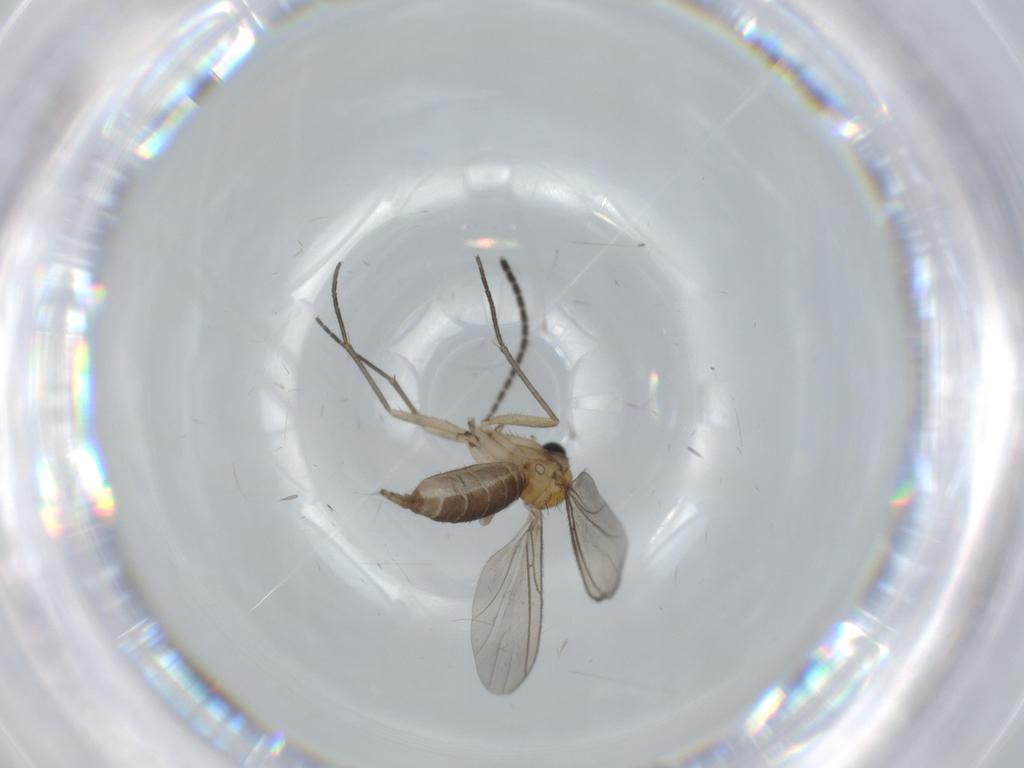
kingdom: Animalia
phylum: Arthropoda
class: Insecta
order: Diptera
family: Sciaridae
